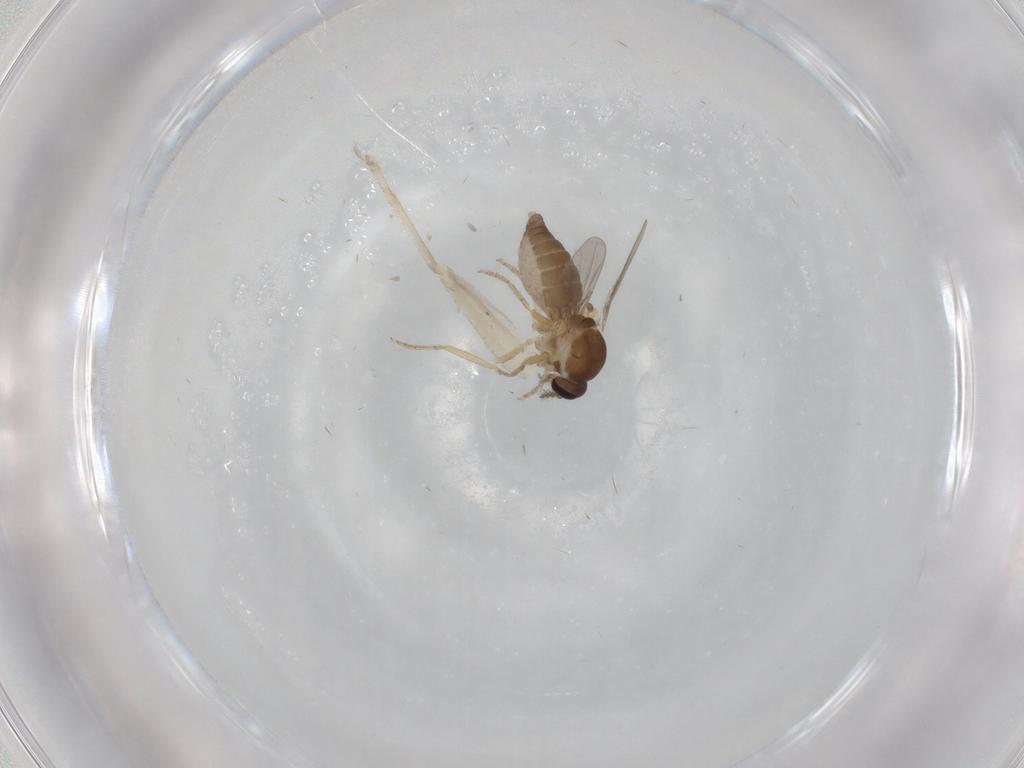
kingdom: Animalia
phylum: Arthropoda
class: Insecta
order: Diptera
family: Ceratopogonidae
